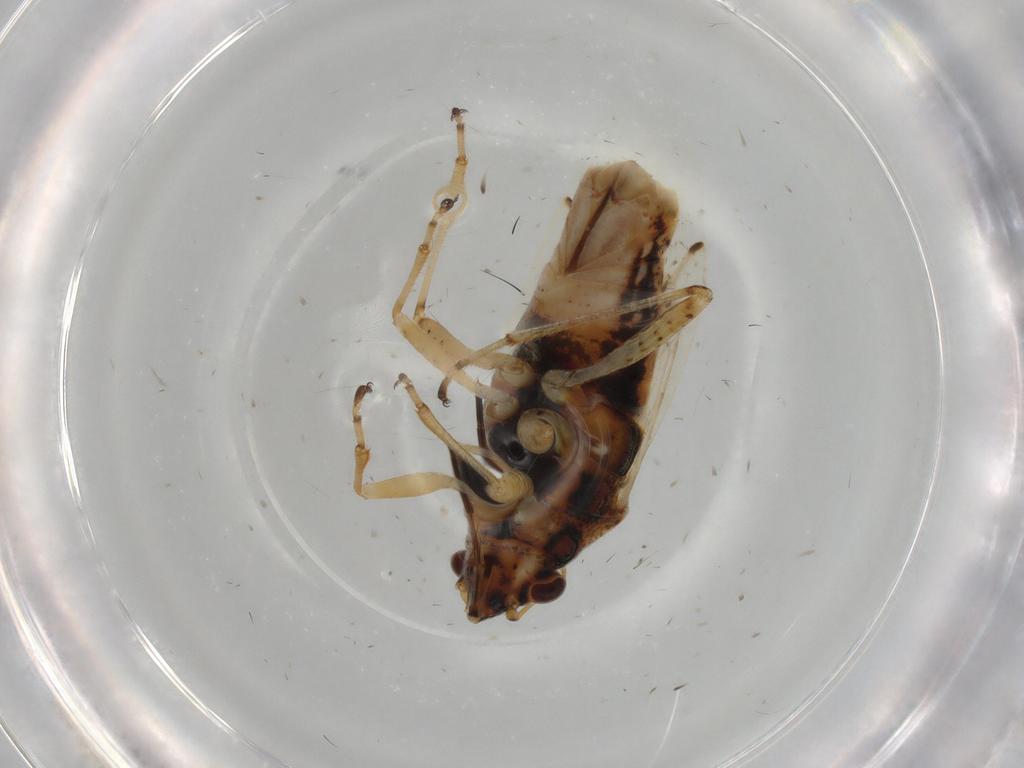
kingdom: Animalia
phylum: Arthropoda
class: Insecta
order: Hemiptera
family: Lygaeidae
